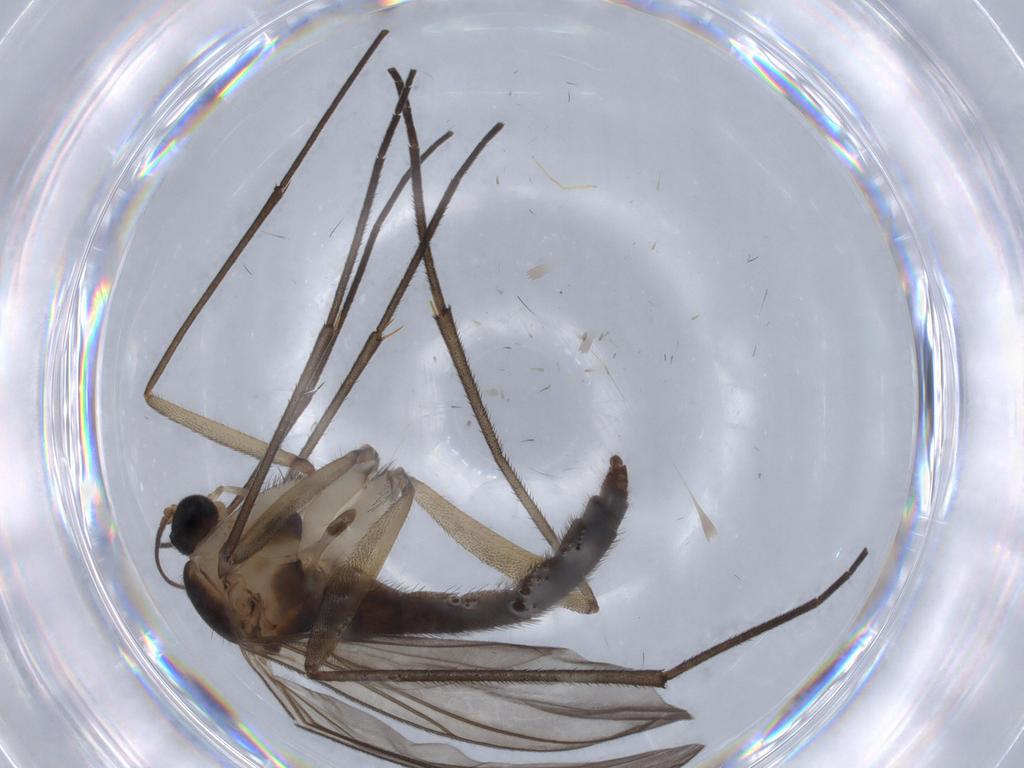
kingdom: Animalia
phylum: Arthropoda
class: Insecta
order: Diptera
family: Sciaridae
